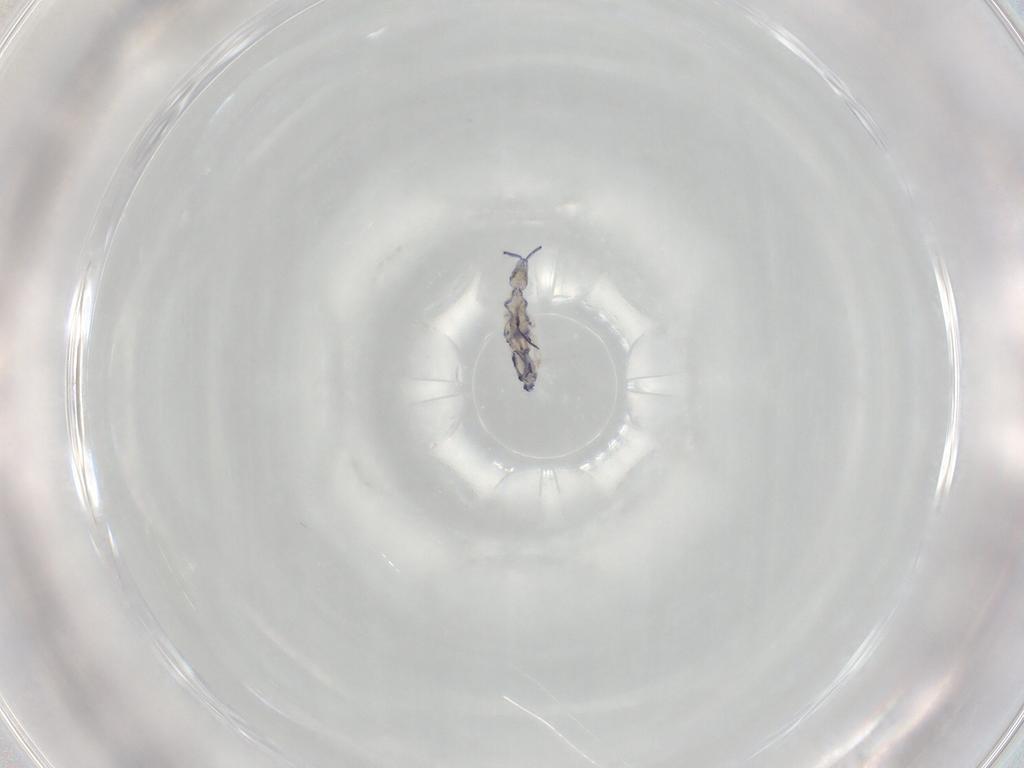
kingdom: Animalia
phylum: Arthropoda
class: Collembola
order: Entomobryomorpha
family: Entomobryidae
